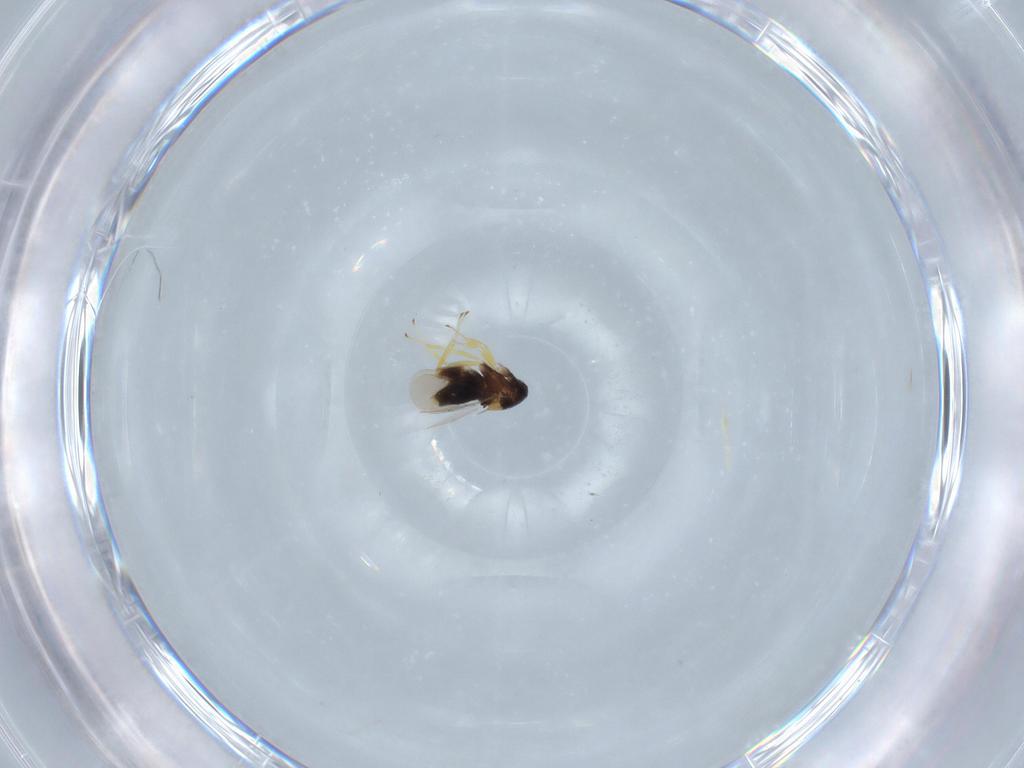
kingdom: Animalia
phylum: Arthropoda
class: Insecta
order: Hymenoptera
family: Aphelinidae
